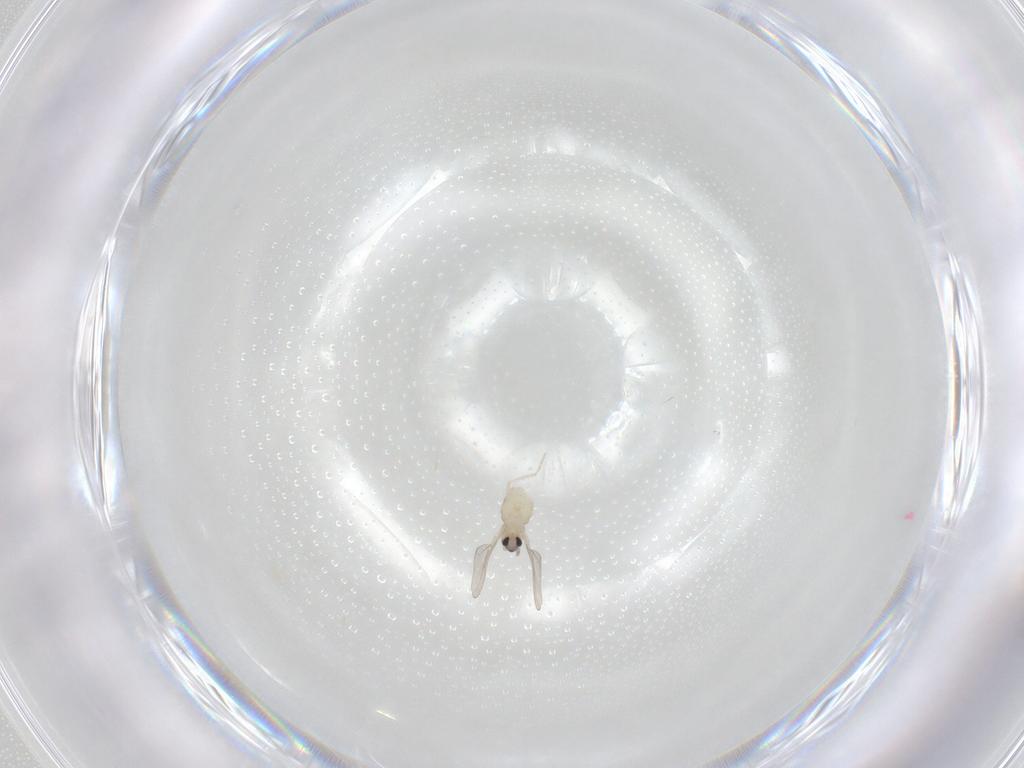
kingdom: Animalia
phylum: Arthropoda
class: Insecta
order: Diptera
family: Cecidomyiidae
